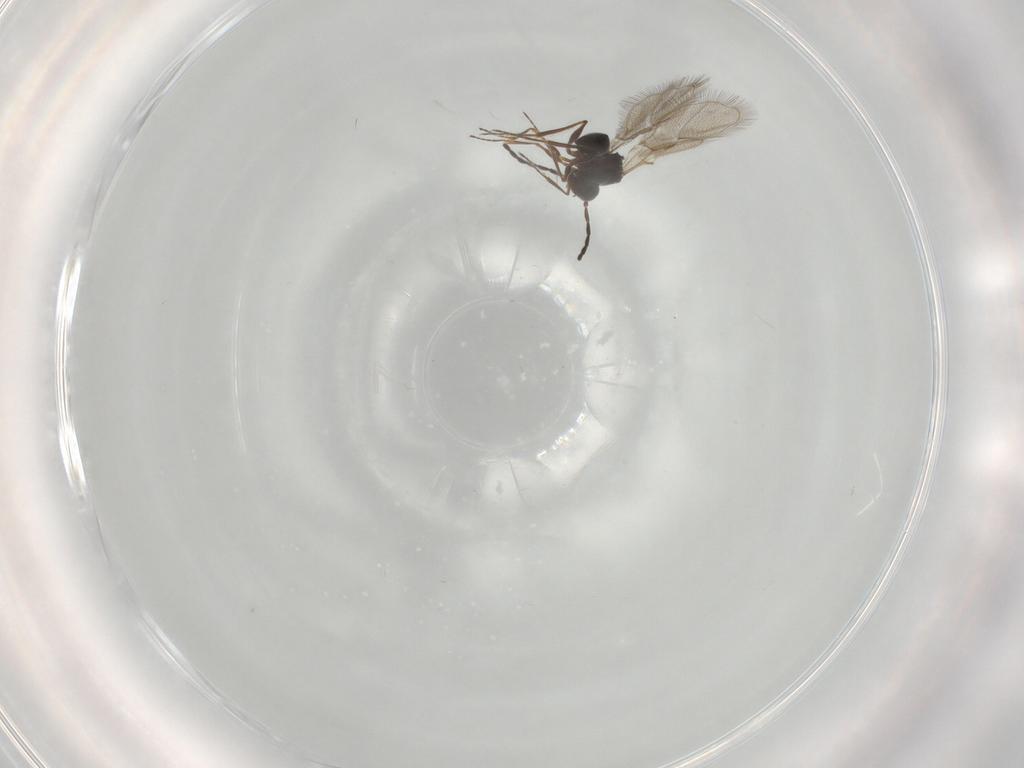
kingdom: Animalia
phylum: Arthropoda
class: Insecta
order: Hymenoptera
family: Figitidae
